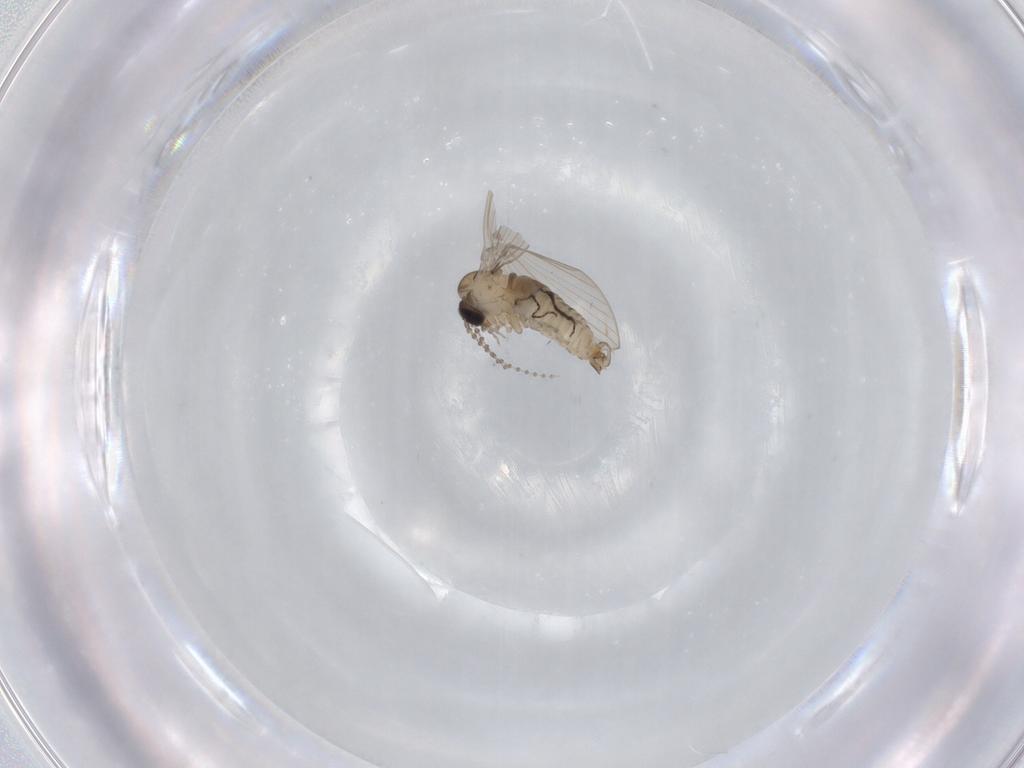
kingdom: Animalia
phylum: Arthropoda
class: Insecta
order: Diptera
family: Psychodidae
